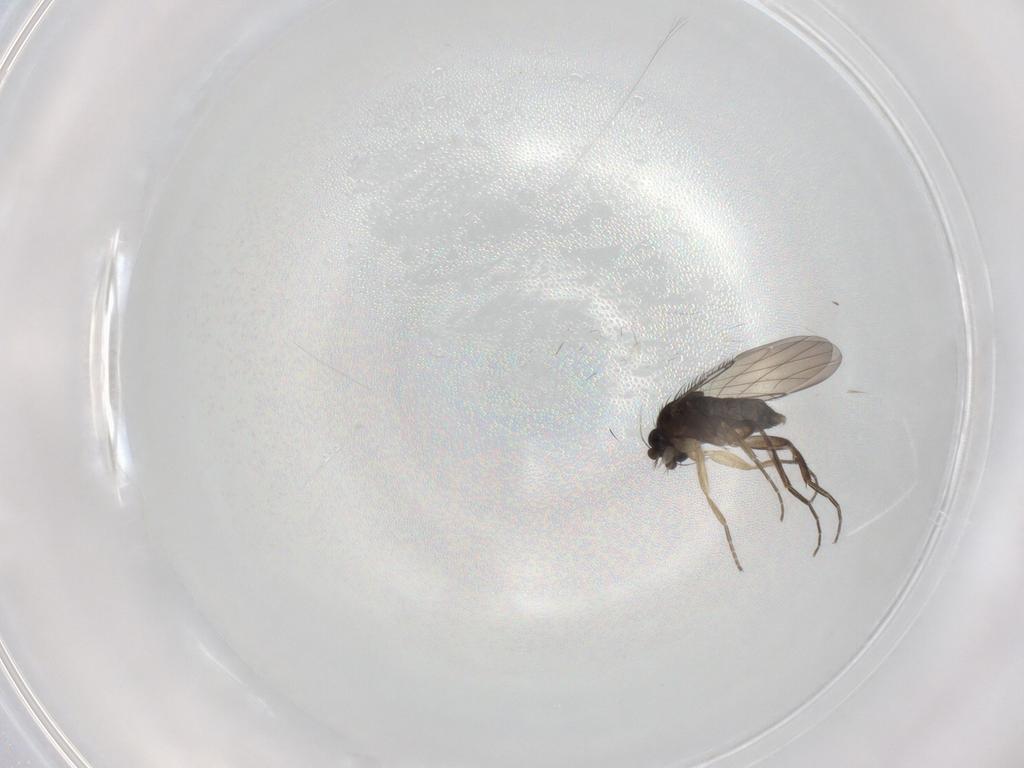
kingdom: Animalia
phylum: Arthropoda
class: Insecta
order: Diptera
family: Phoridae
